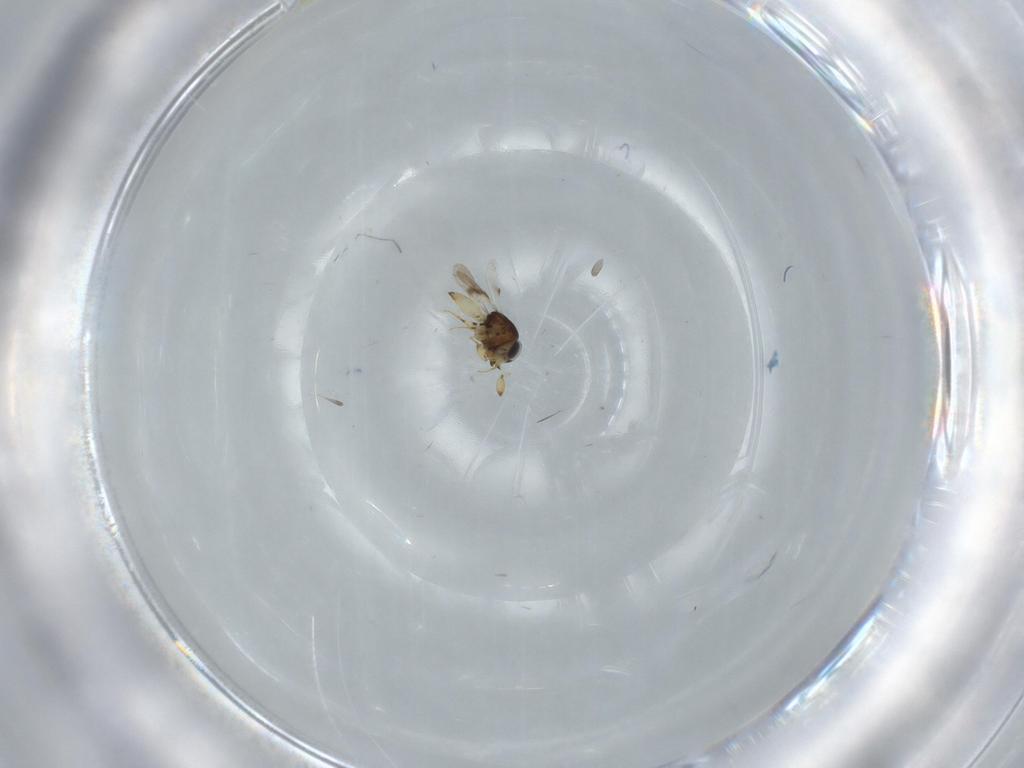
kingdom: Animalia
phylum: Arthropoda
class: Insecta
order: Hymenoptera
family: Scelionidae
